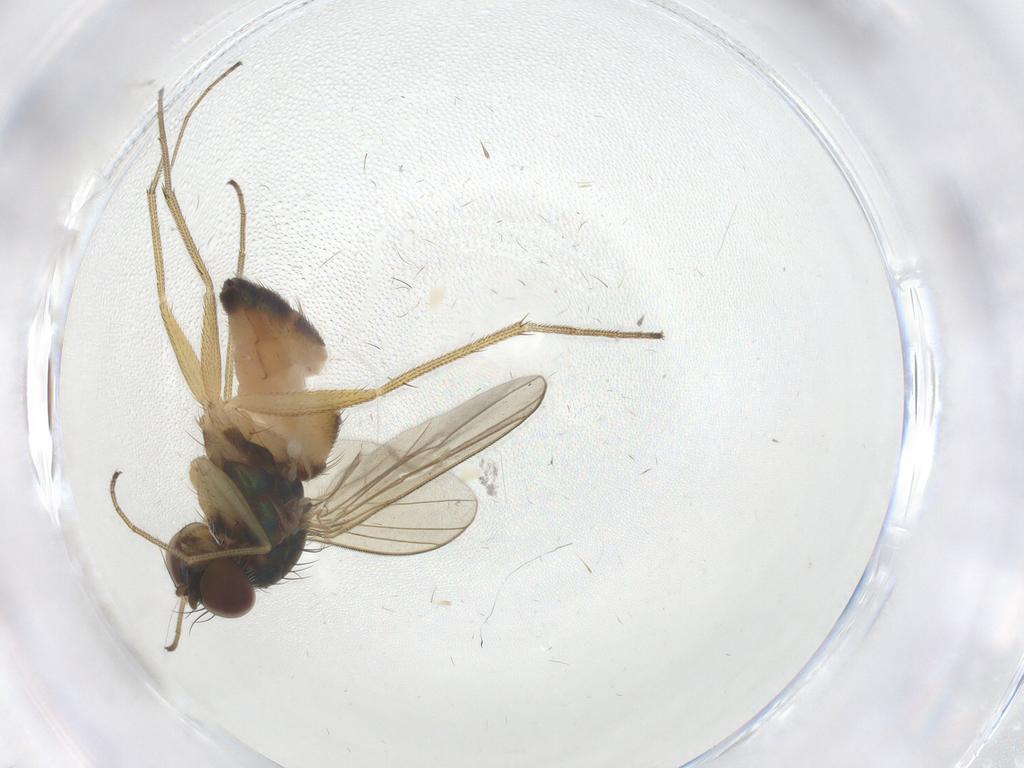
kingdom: Animalia
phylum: Arthropoda
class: Insecta
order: Diptera
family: Dolichopodidae
